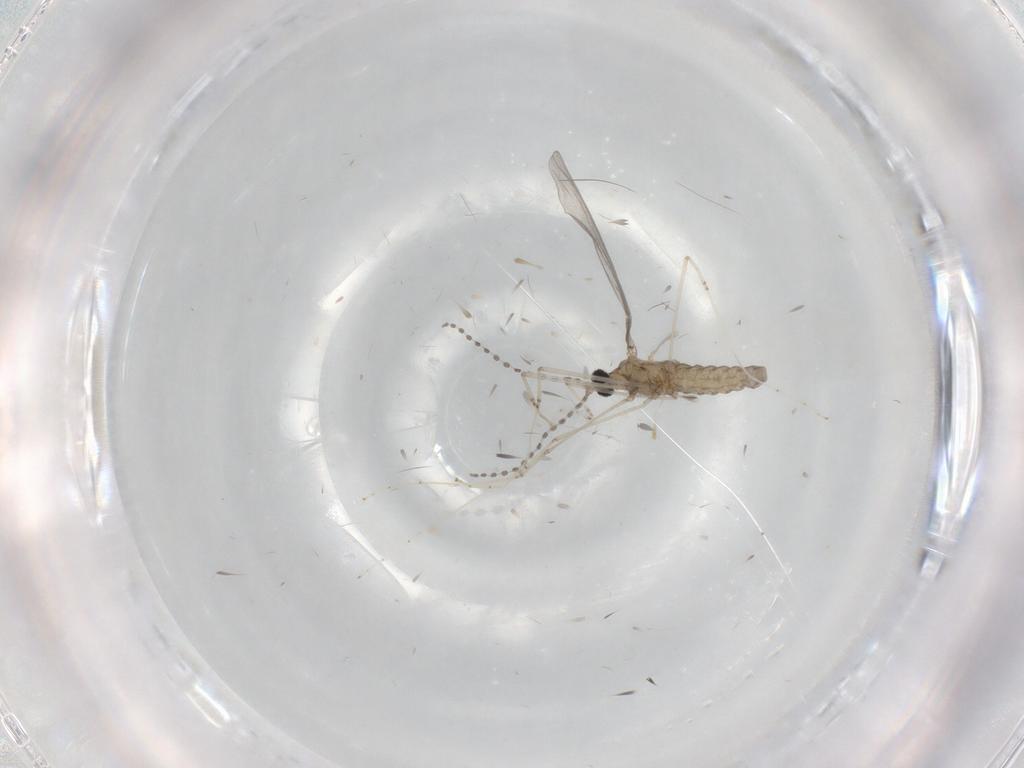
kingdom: Animalia
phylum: Arthropoda
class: Insecta
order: Diptera
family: Cecidomyiidae
